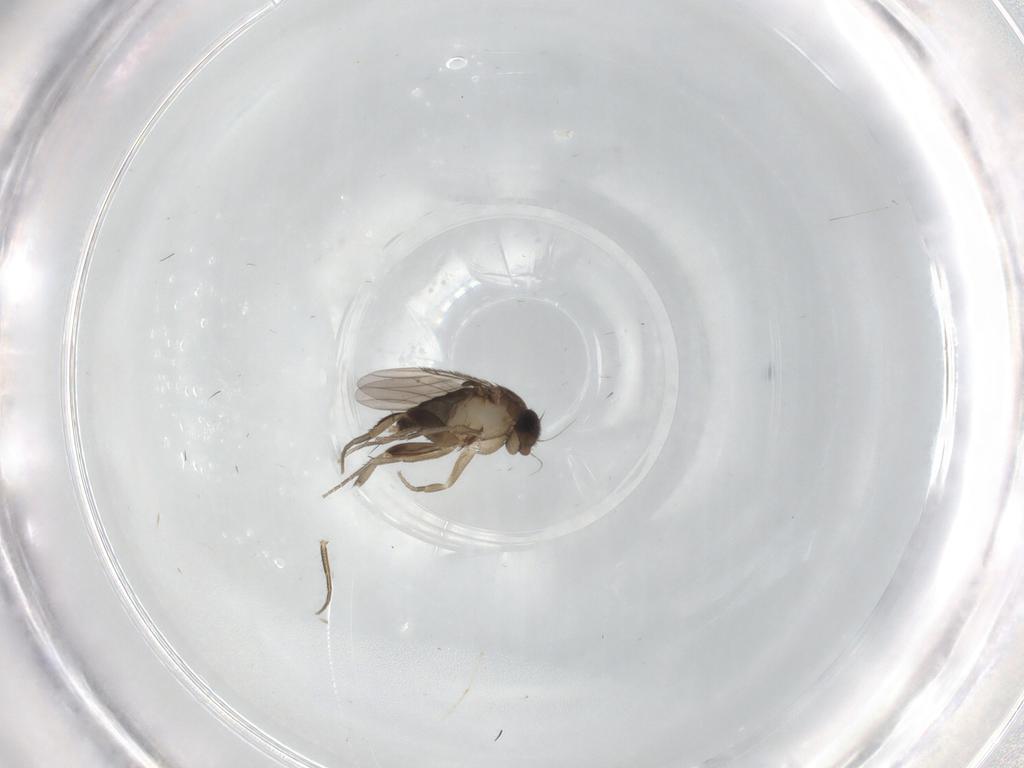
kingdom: Animalia
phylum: Arthropoda
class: Insecta
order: Diptera
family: Phoridae
